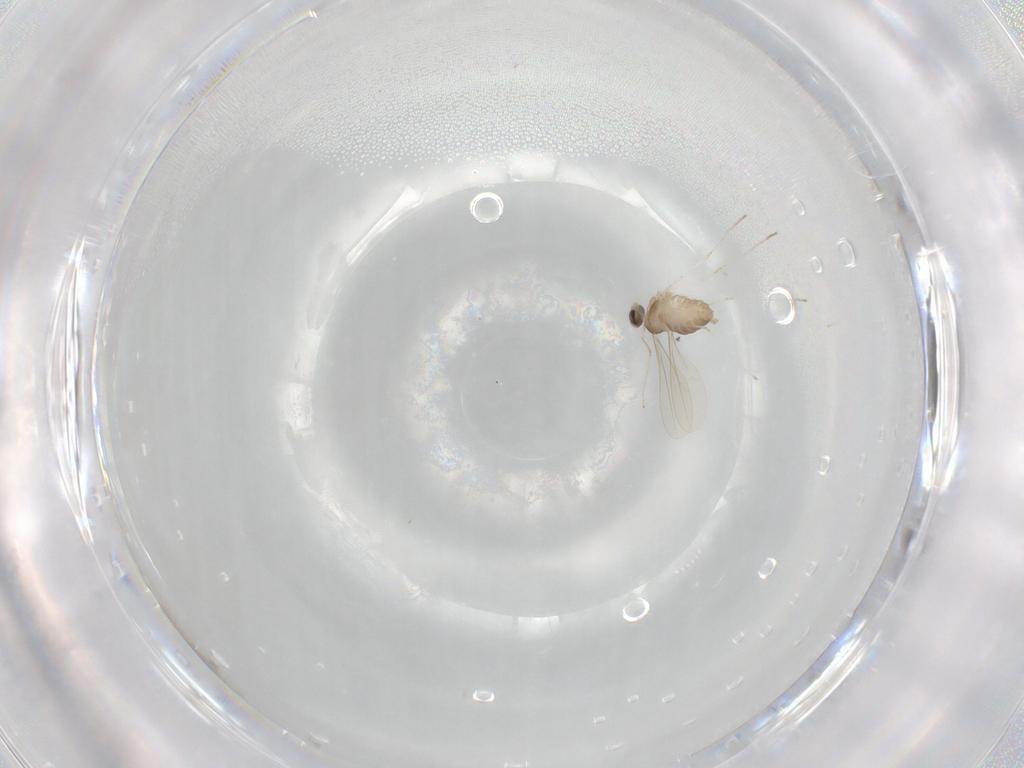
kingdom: Animalia
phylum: Arthropoda
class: Insecta
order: Diptera
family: Cecidomyiidae
